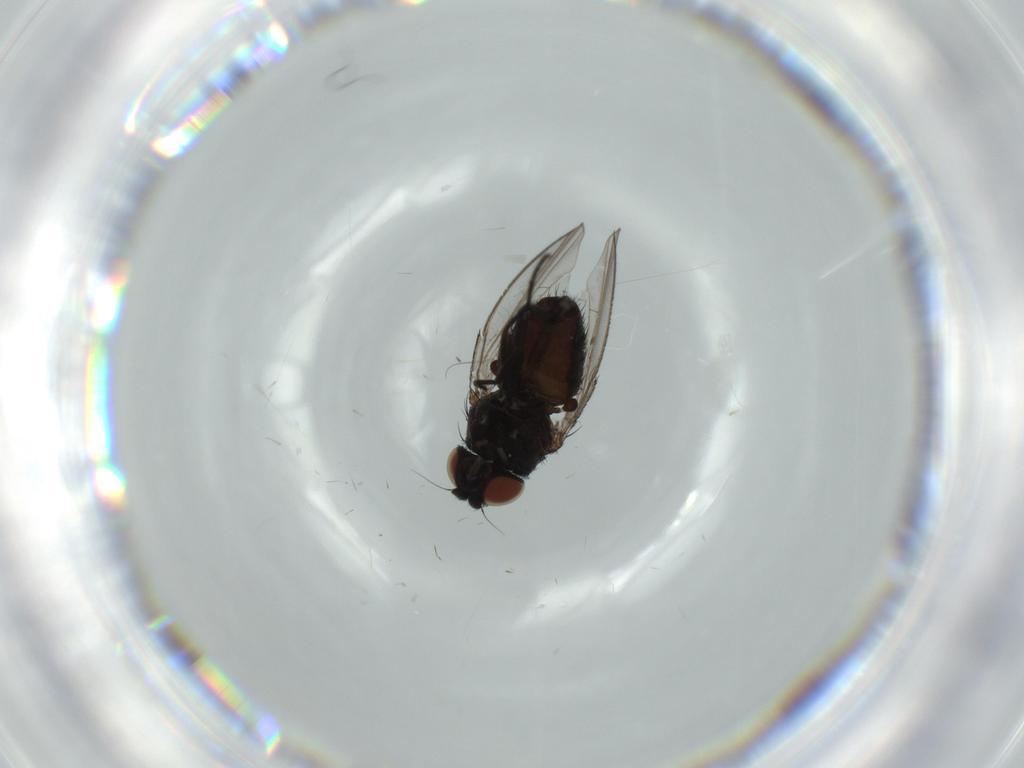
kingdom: Animalia
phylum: Arthropoda
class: Insecta
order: Diptera
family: Milichiidae
